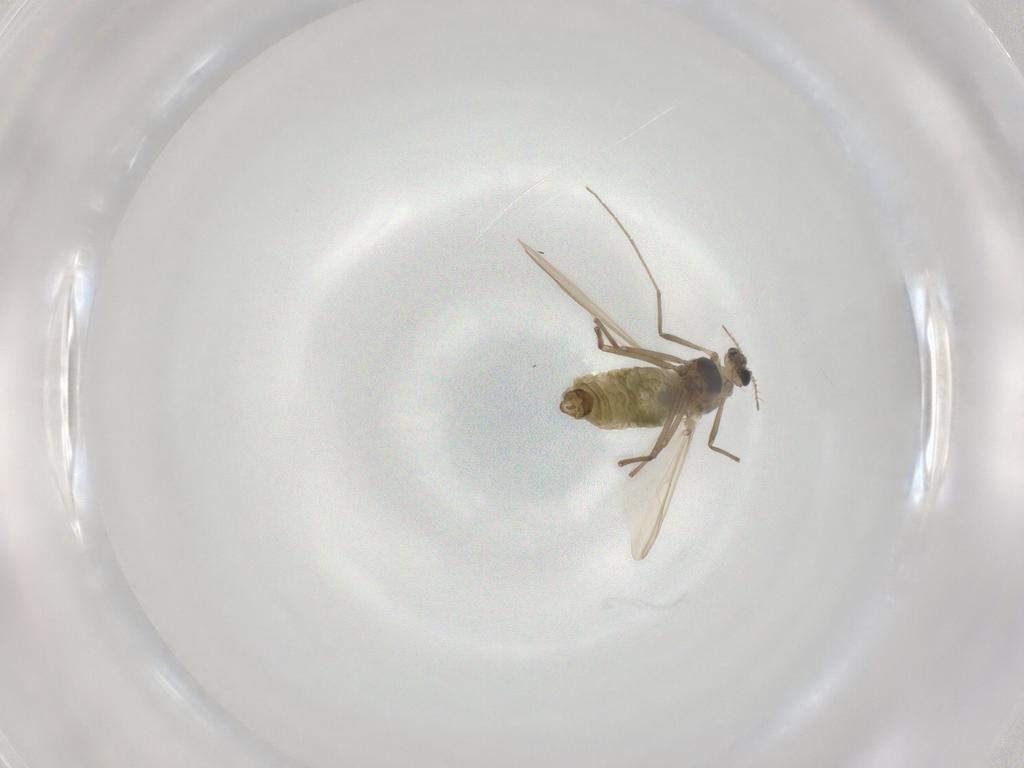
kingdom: Animalia
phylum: Arthropoda
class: Insecta
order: Diptera
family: Chironomidae
